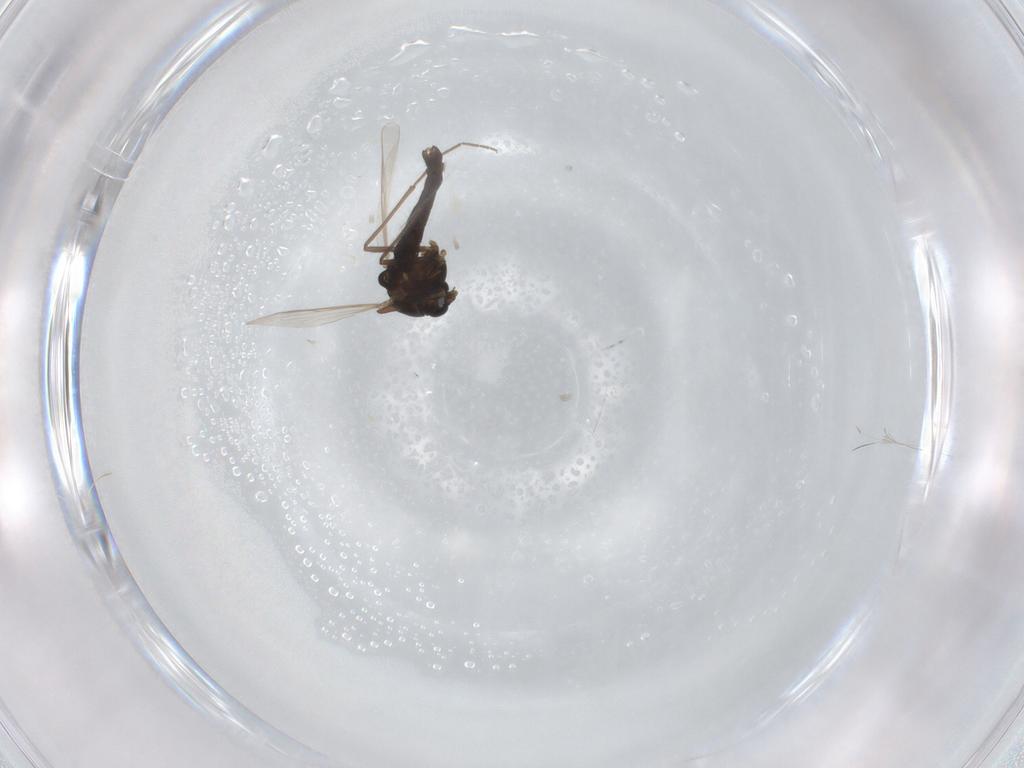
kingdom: Animalia
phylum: Arthropoda
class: Insecta
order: Diptera
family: Chironomidae
